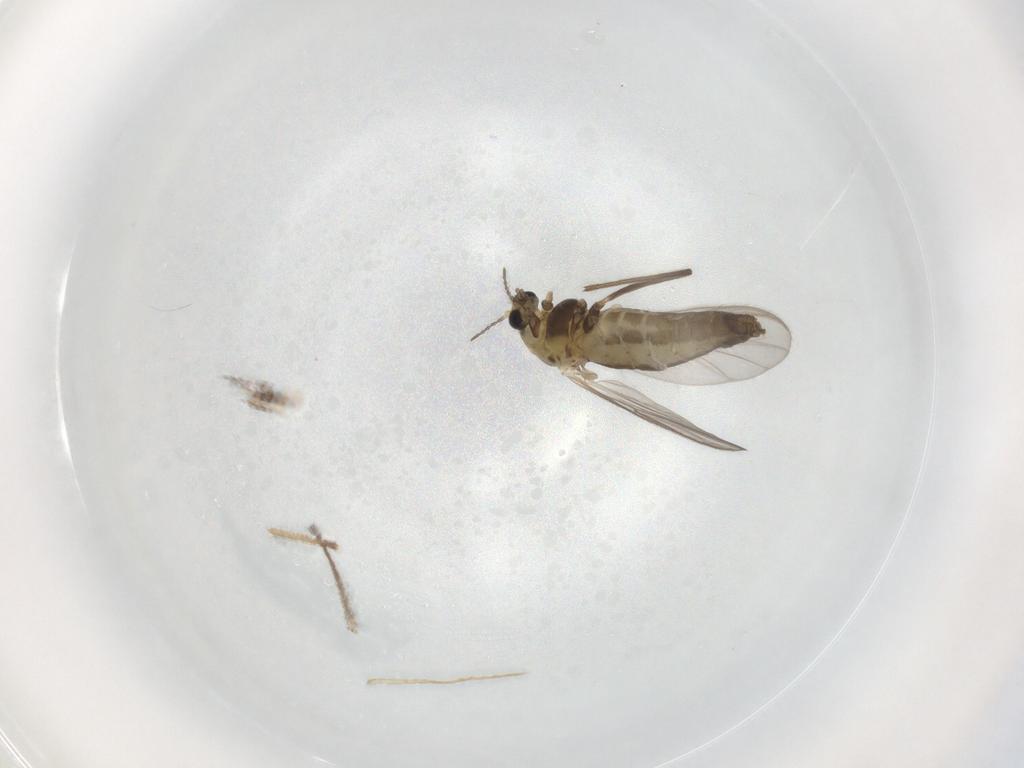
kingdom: Animalia
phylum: Arthropoda
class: Insecta
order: Diptera
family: Chironomidae
